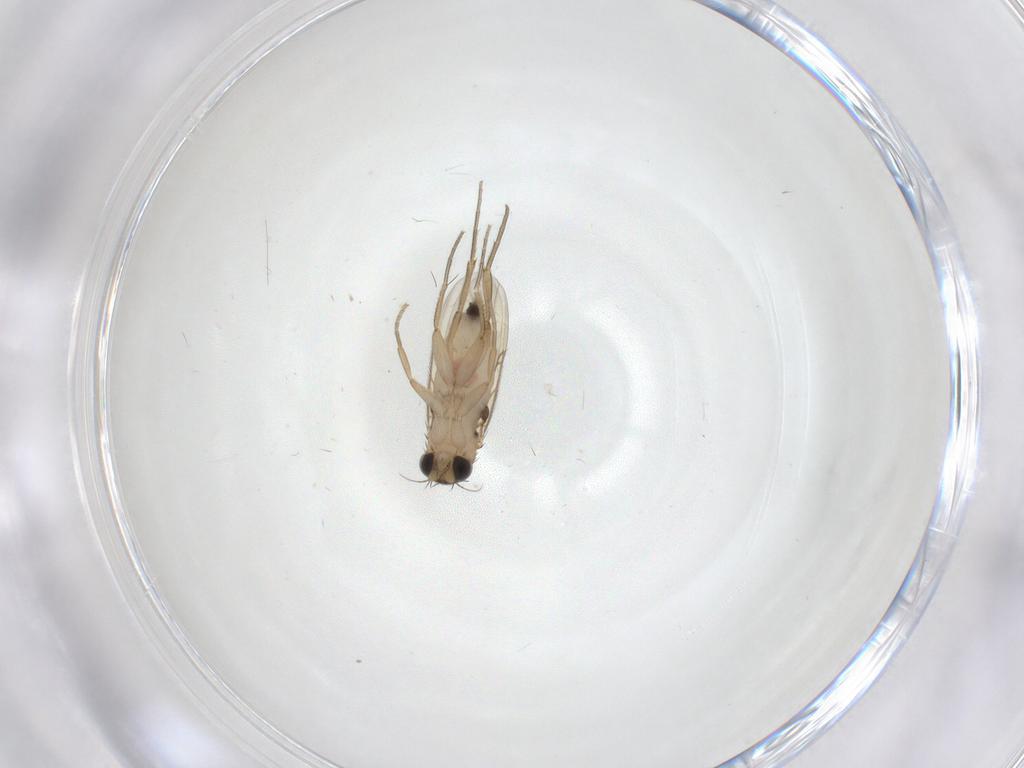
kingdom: Animalia
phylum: Arthropoda
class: Insecta
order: Diptera
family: Phoridae
